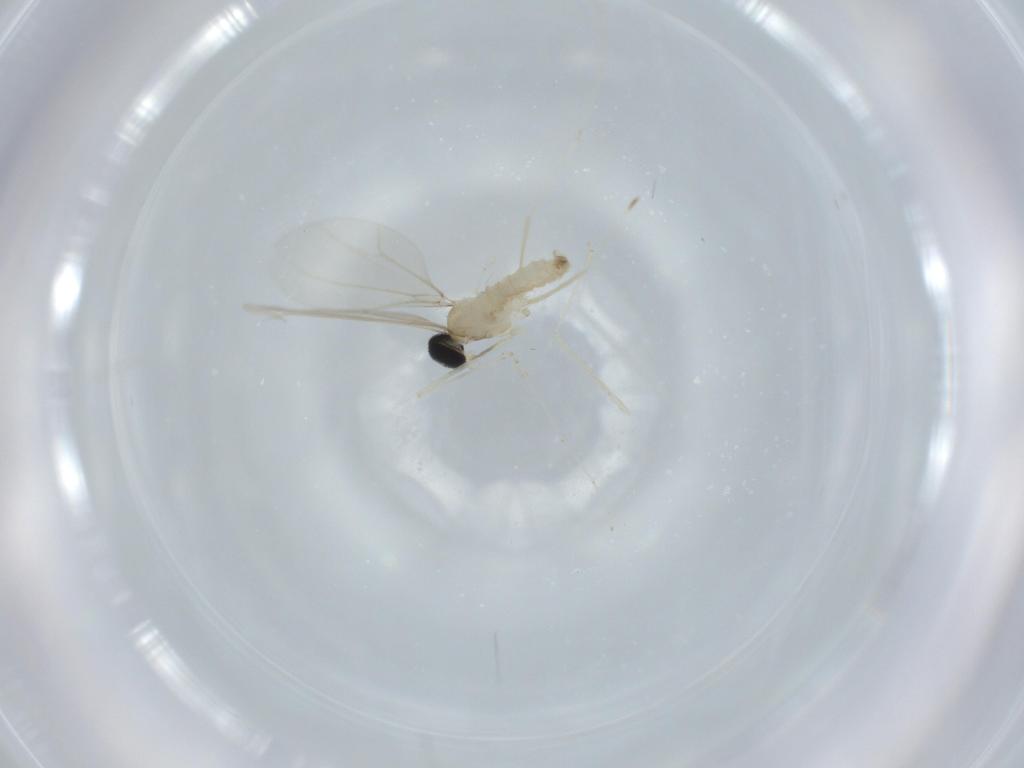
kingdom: Animalia
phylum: Arthropoda
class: Insecta
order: Diptera
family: Cecidomyiidae
